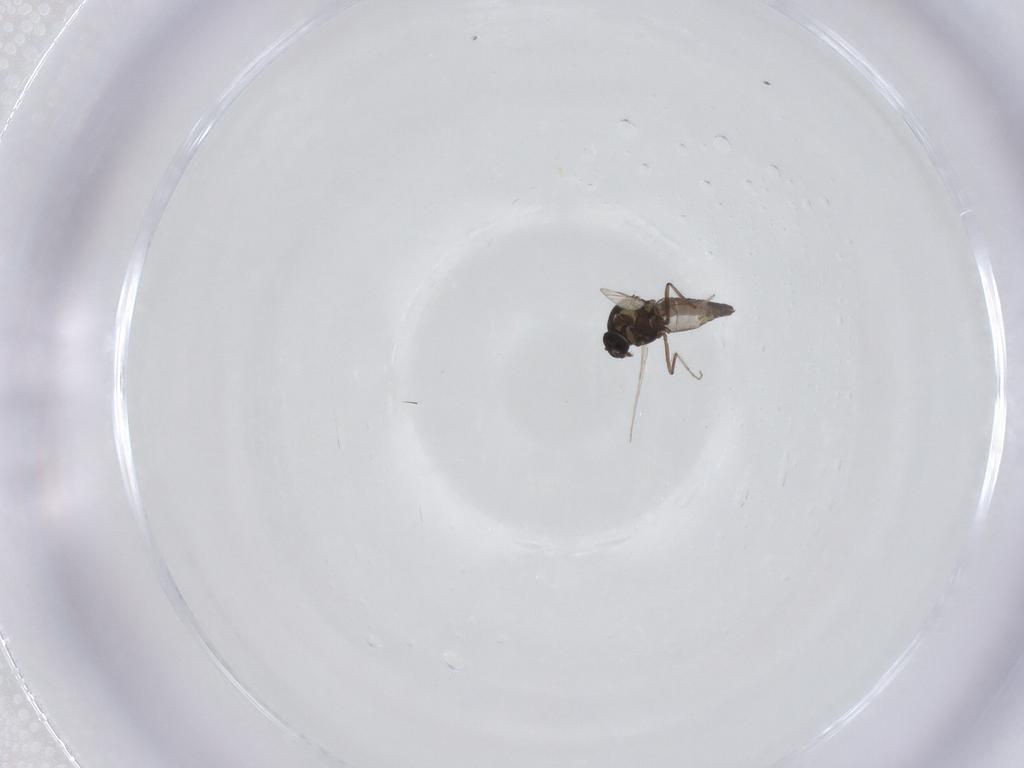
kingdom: Animalia
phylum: Arthropoda
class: Insecta
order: Diptera
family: Ceratopogonidae
